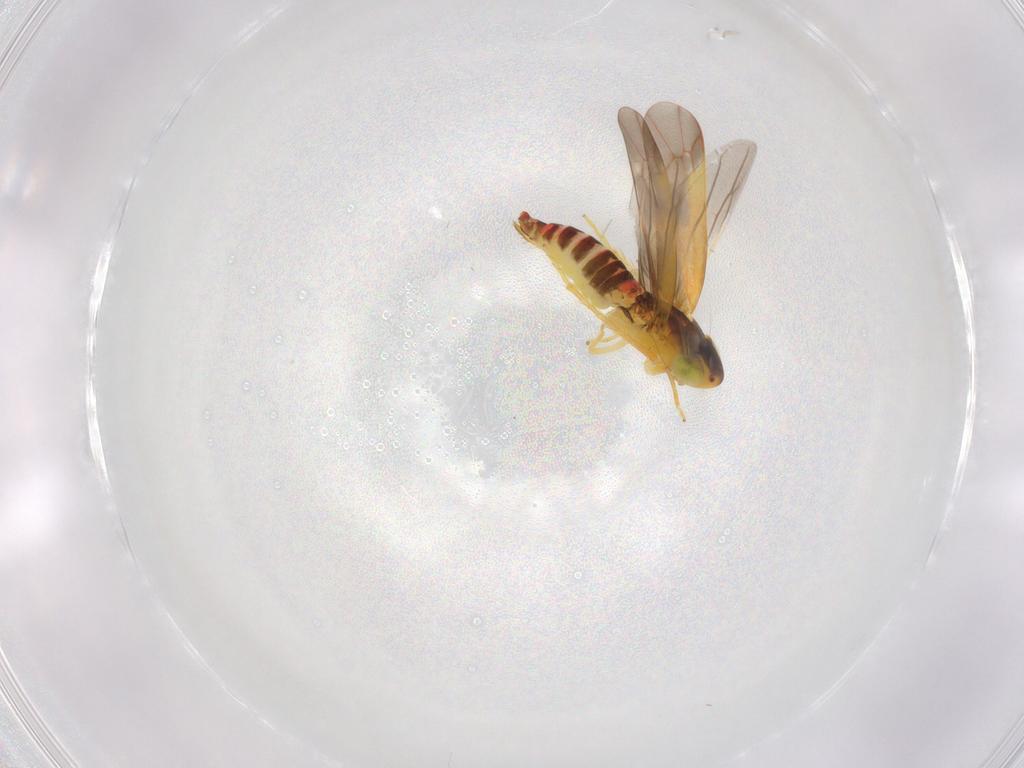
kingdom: Animalia
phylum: Arthropoda
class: Insecta
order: Hemiptera
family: Cicadellidae
